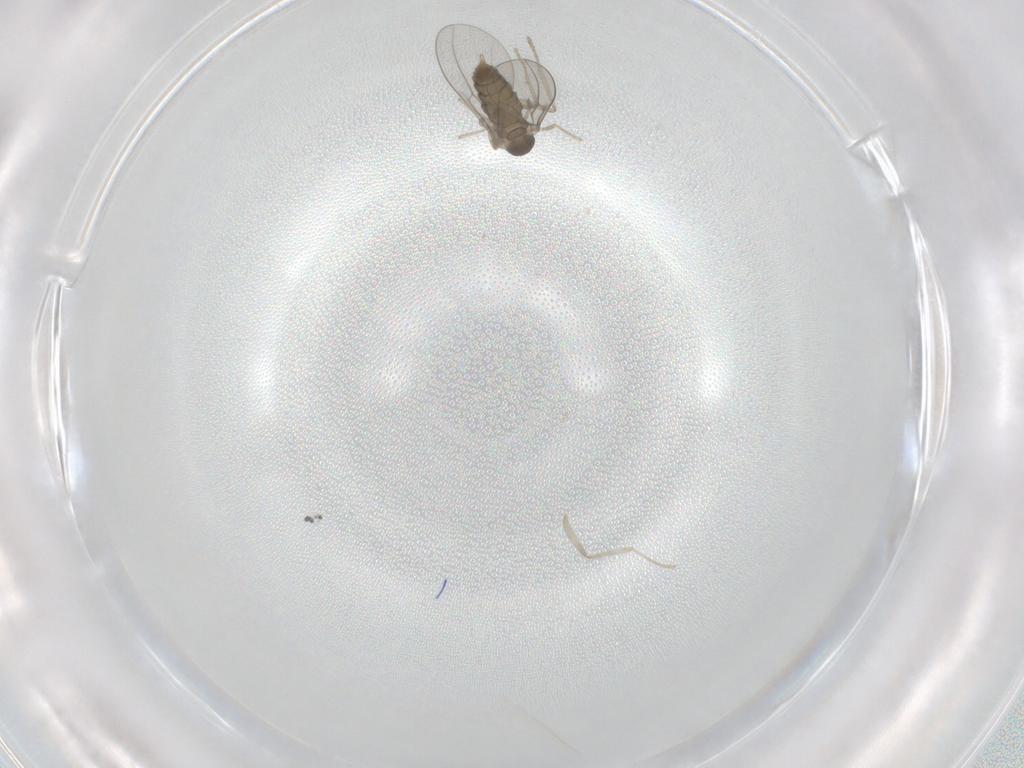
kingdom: Animalia
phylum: Arthropoda
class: Insecta
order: Diptera
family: Cecidomyiidae
